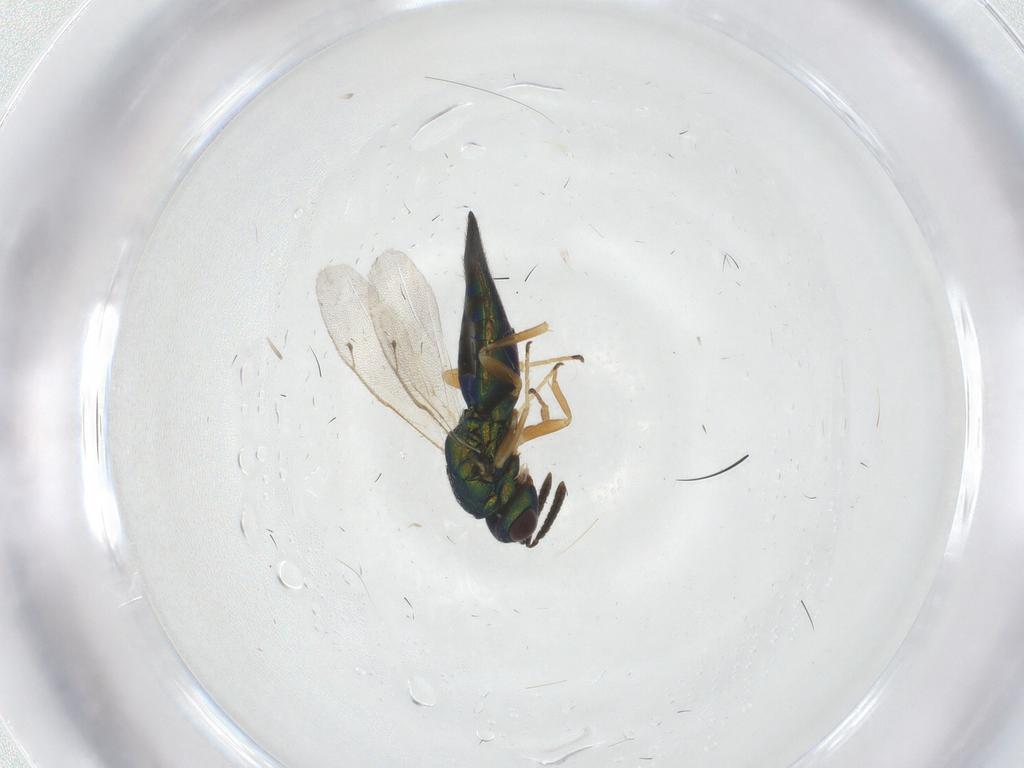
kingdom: Animalia
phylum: Arthropoda
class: Insecta
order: Hymenoptera
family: Pteromalidae
